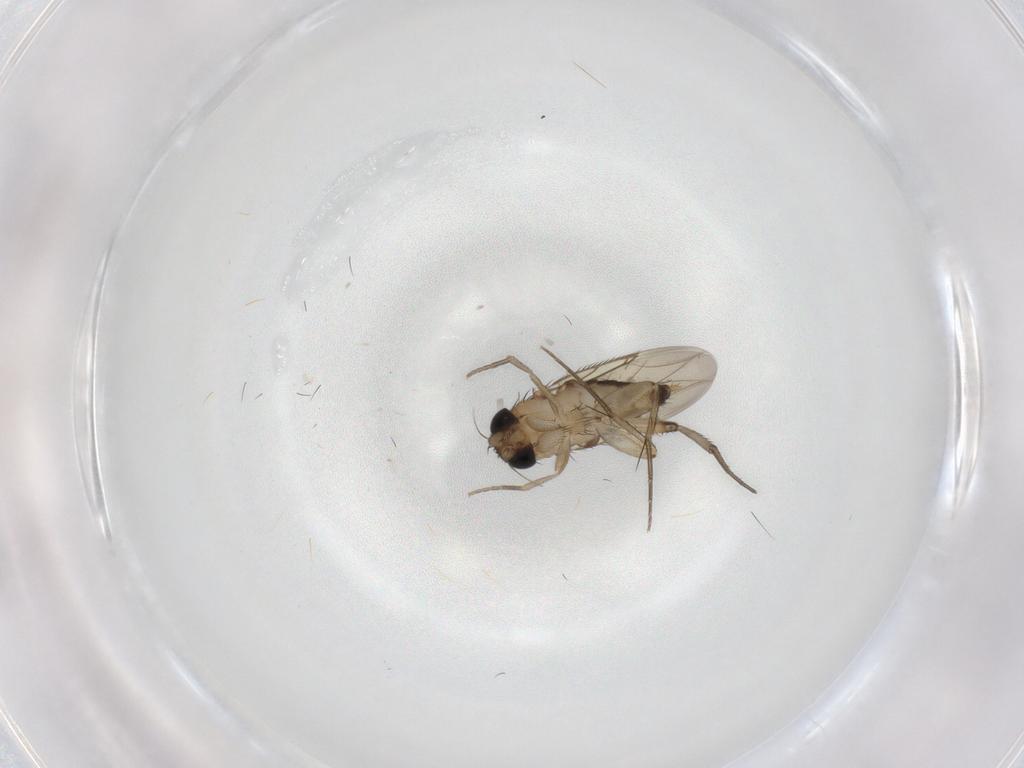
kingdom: Animalia
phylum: Arthropoda
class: Insecta
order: Diptera
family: Phoridae
